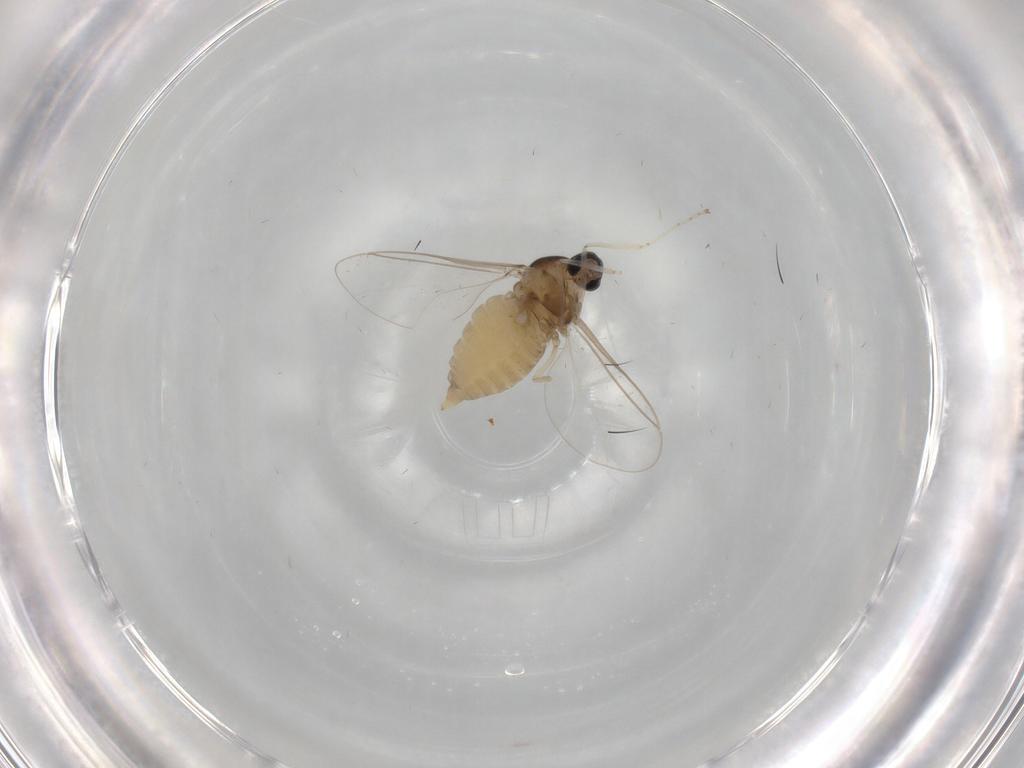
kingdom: Animalia
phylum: Arthropoda
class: Insecta
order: Diptera
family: Cecidomyiidae
